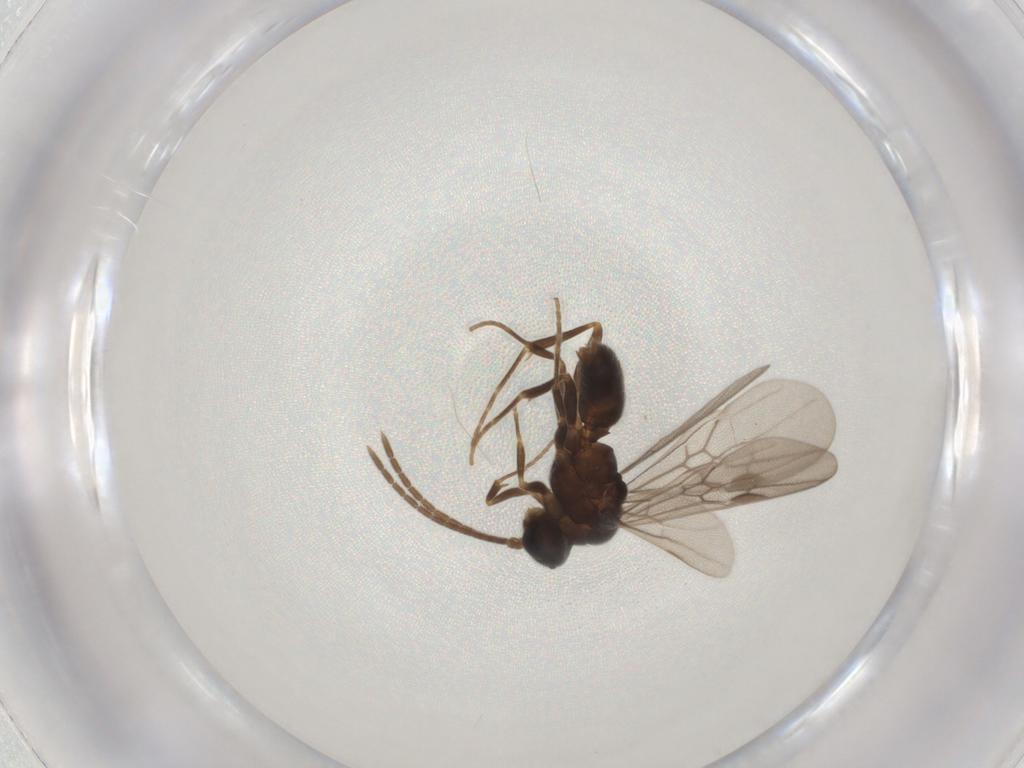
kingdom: Animalia
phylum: Arthropoda
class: Insecta
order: Hymenoptera
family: Formicidae
